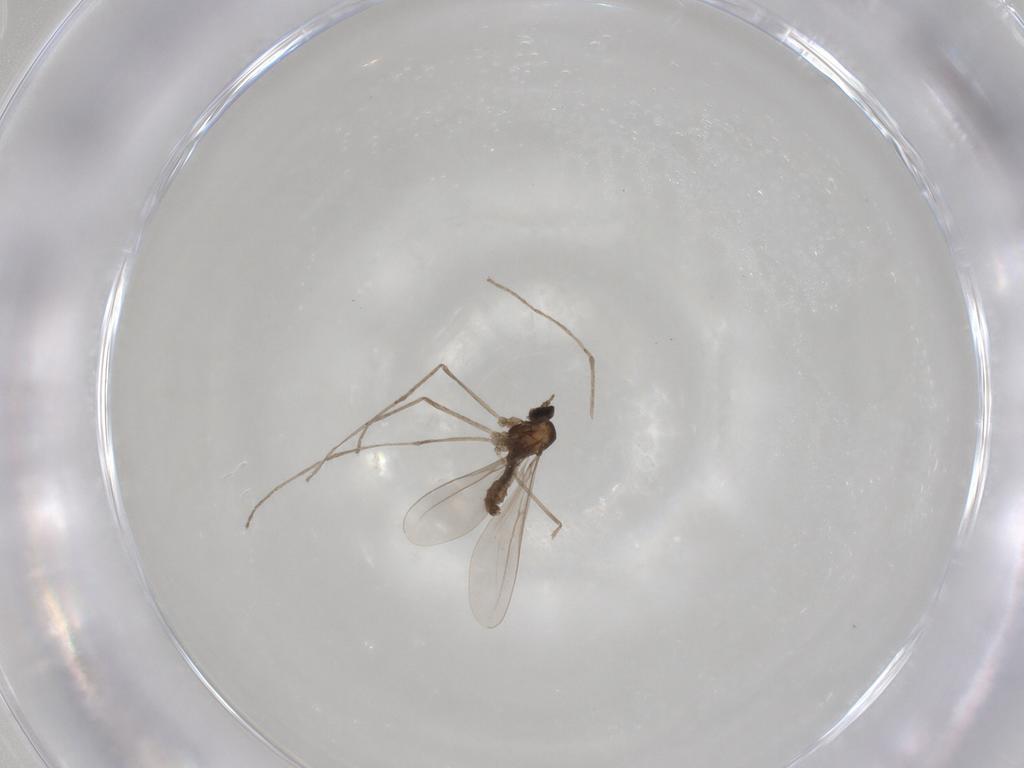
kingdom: Animalia
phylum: Arthropoda
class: Insecta
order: Diptera
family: Cecidomyiidae
